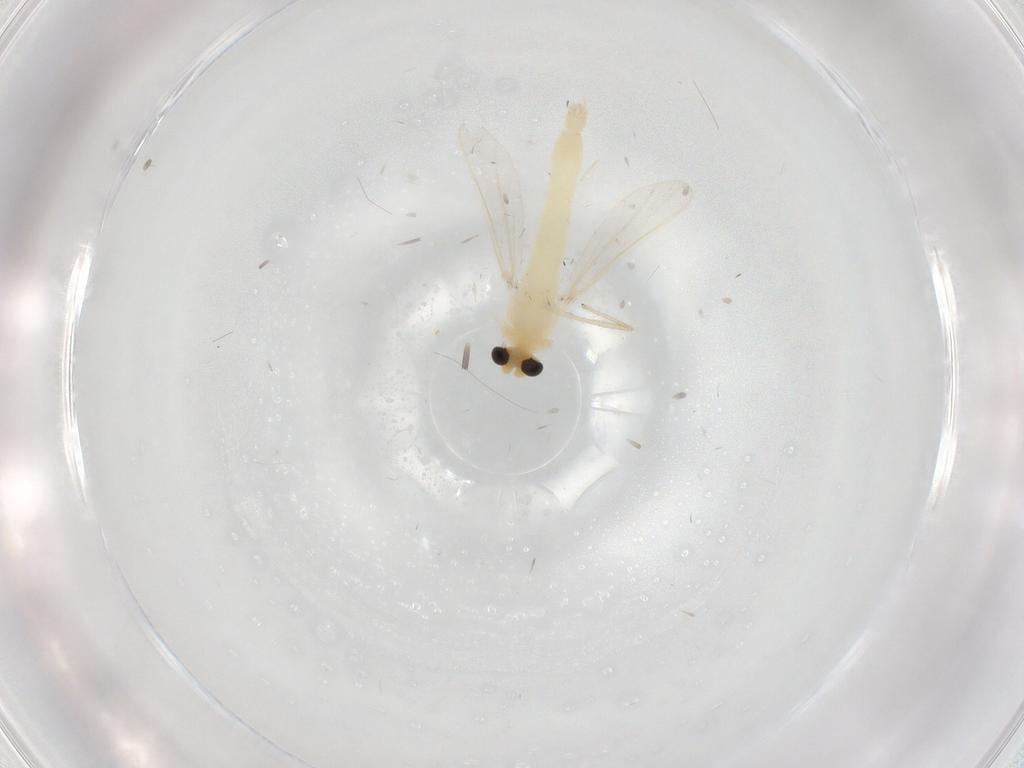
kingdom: Animalia
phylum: Arthropoda
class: Insecta
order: Diptera
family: Chironomidae
